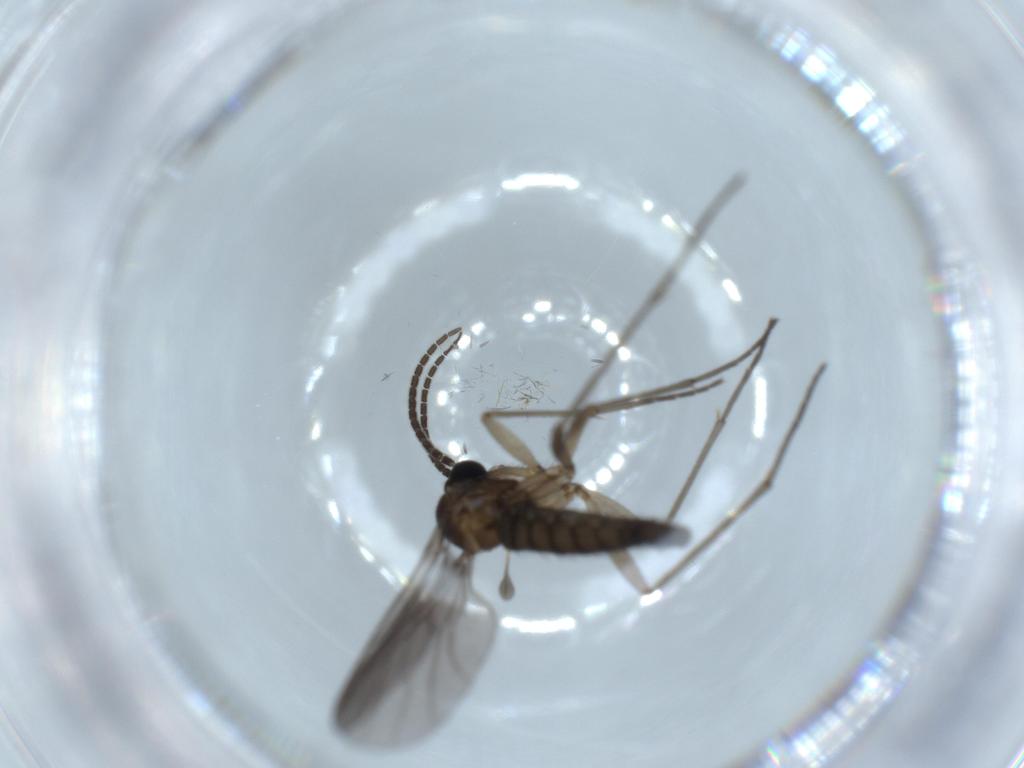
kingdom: Animalia
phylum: Arthropoda
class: Insecta
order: Diptera
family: Sciaridae
